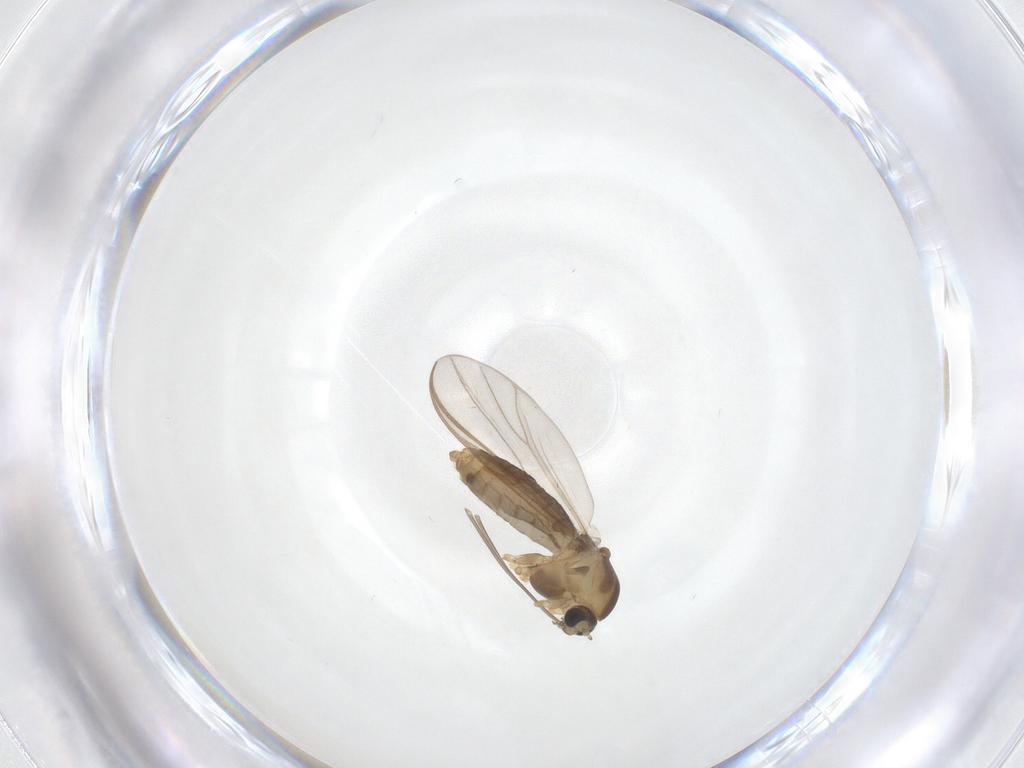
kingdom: Animalia
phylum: Arthropoda
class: Insecta
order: Diptera
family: Chironomidae
